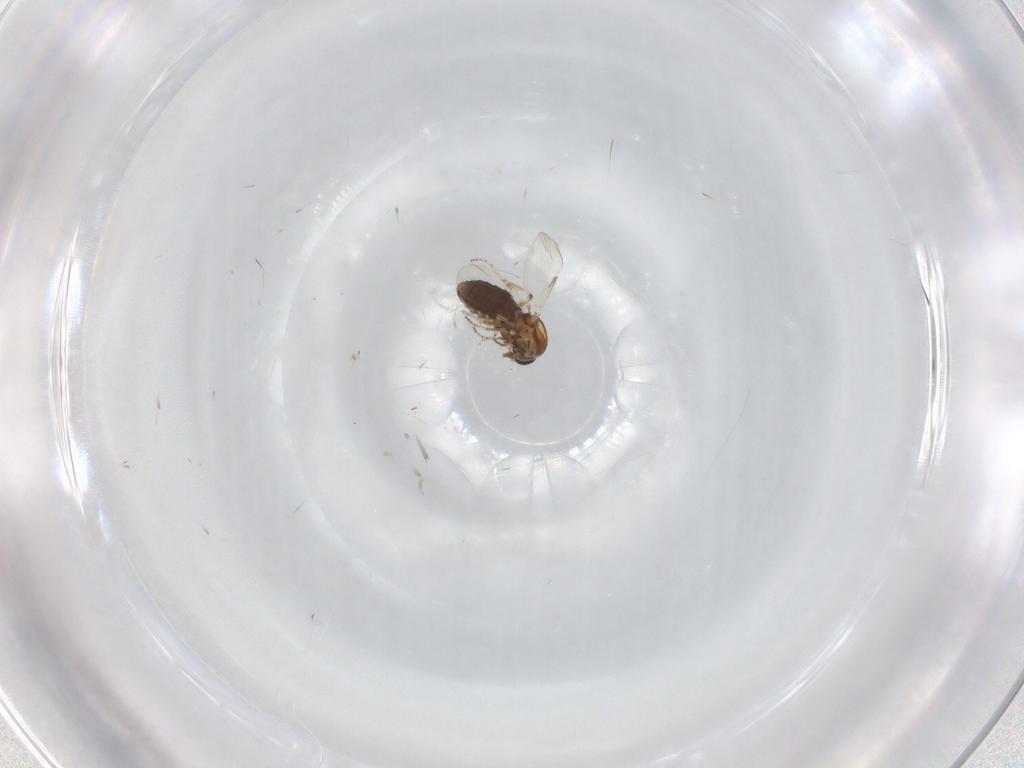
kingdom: Animalia
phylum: Arthropoda
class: Insecta
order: Diptera
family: Ceratopogonidae
